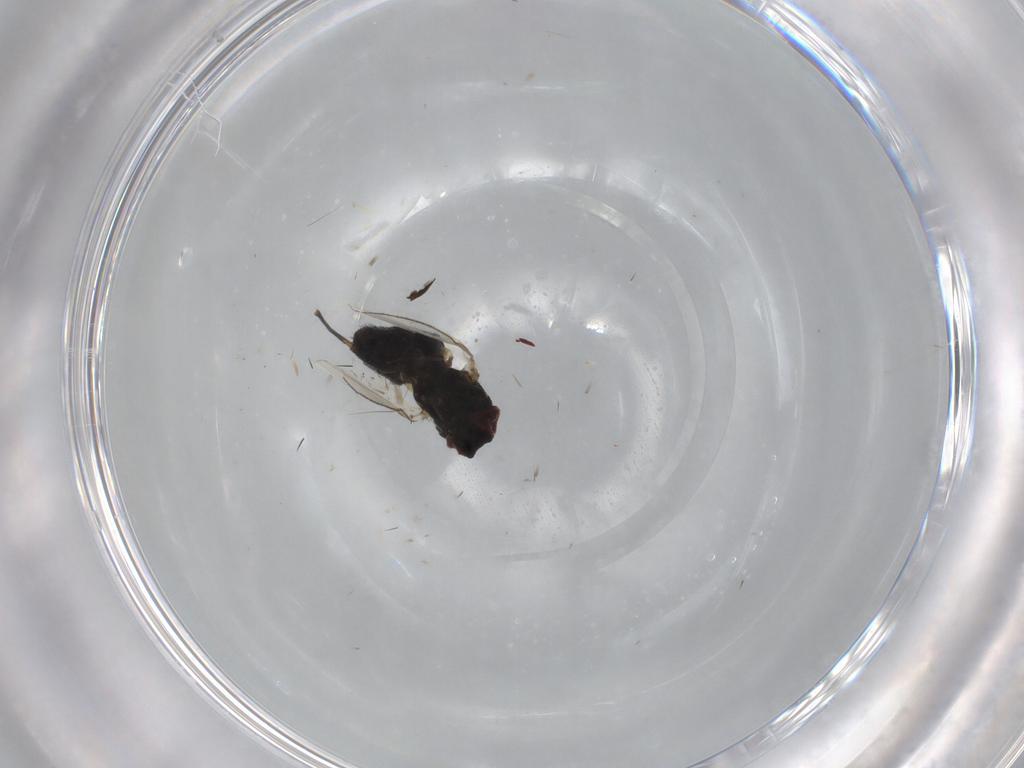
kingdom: Animalia
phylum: Arthropoda
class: Insecta
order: Diptera
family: Milichiidae
